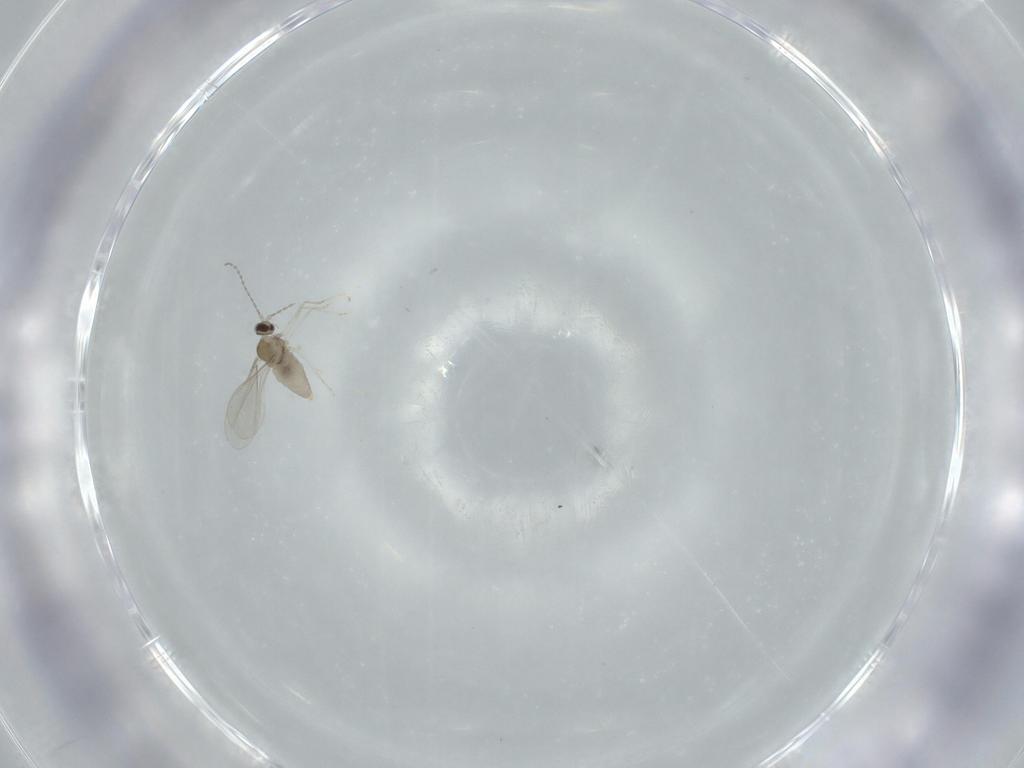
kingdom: Animalia
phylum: Arthropoda
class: Insecta
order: Diptera
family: Cecidomyiidae
